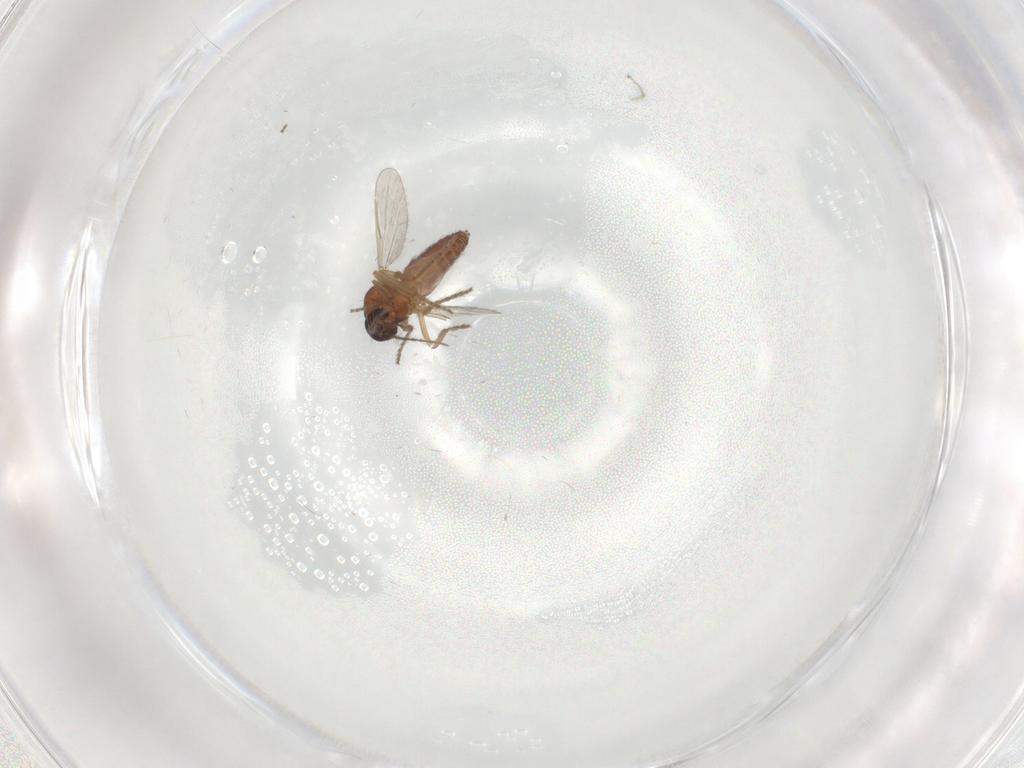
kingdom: Animalia
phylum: Arthropoda
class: Insecta
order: Diptera
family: Ceratopogonidae
